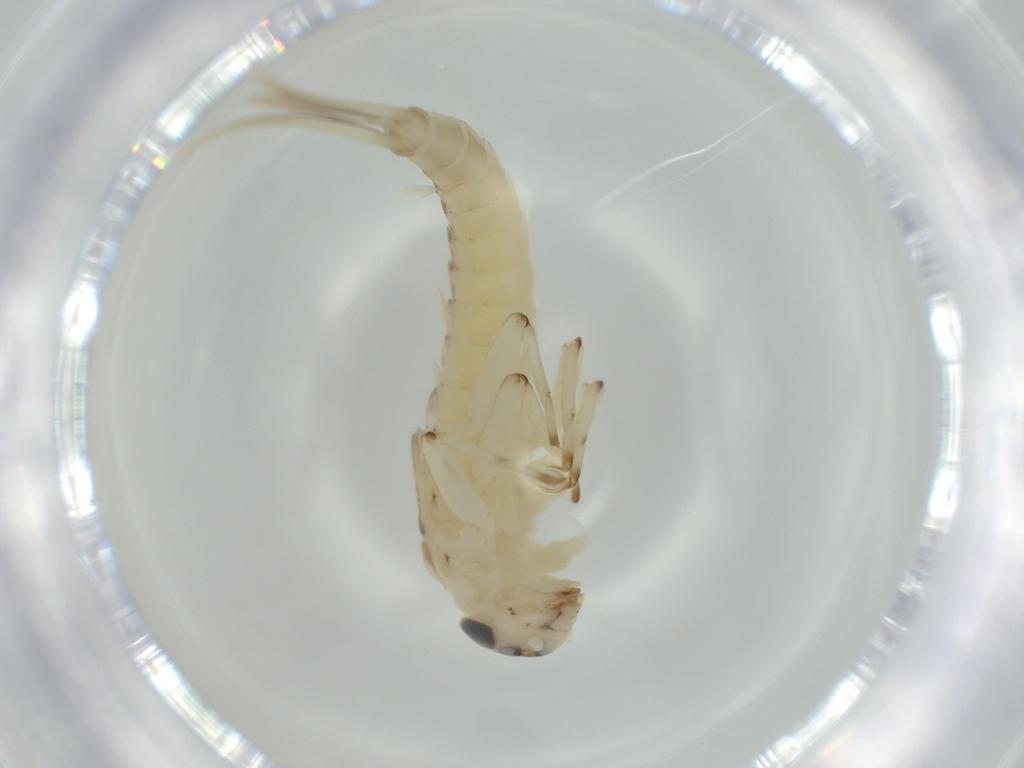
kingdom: Animalia
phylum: Arthropoda
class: Insecta
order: Ephemeroptera
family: Baetidae
